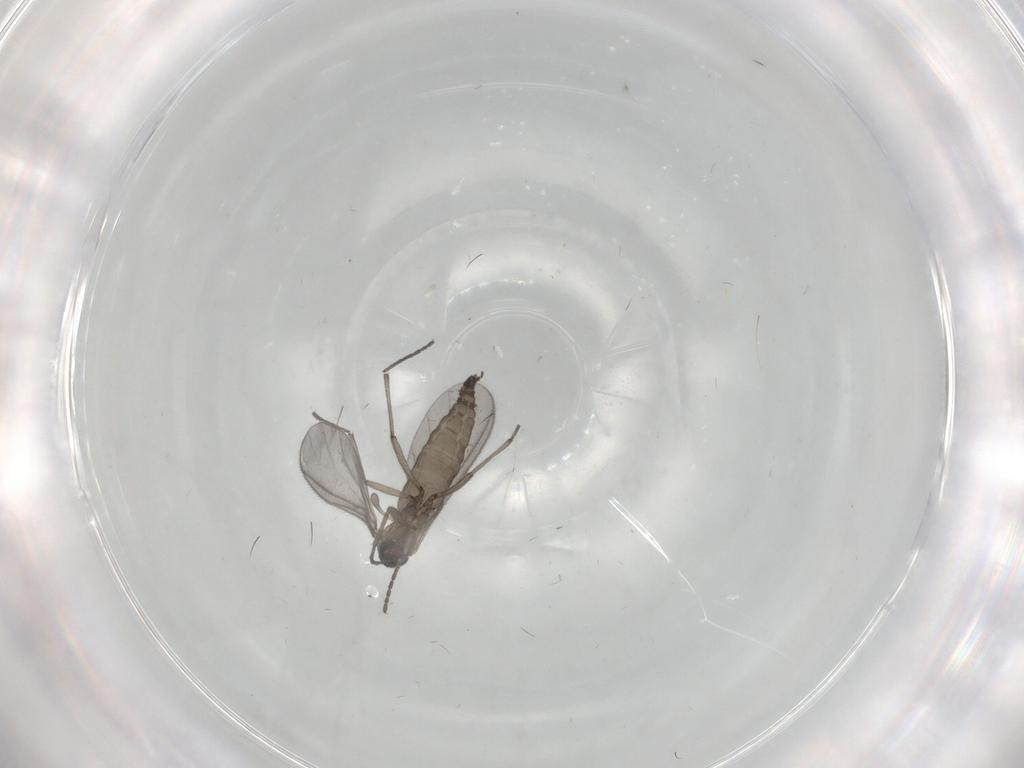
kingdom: Animalia
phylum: Arthropoda
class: Insecta
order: Diptera
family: Sciaridae
